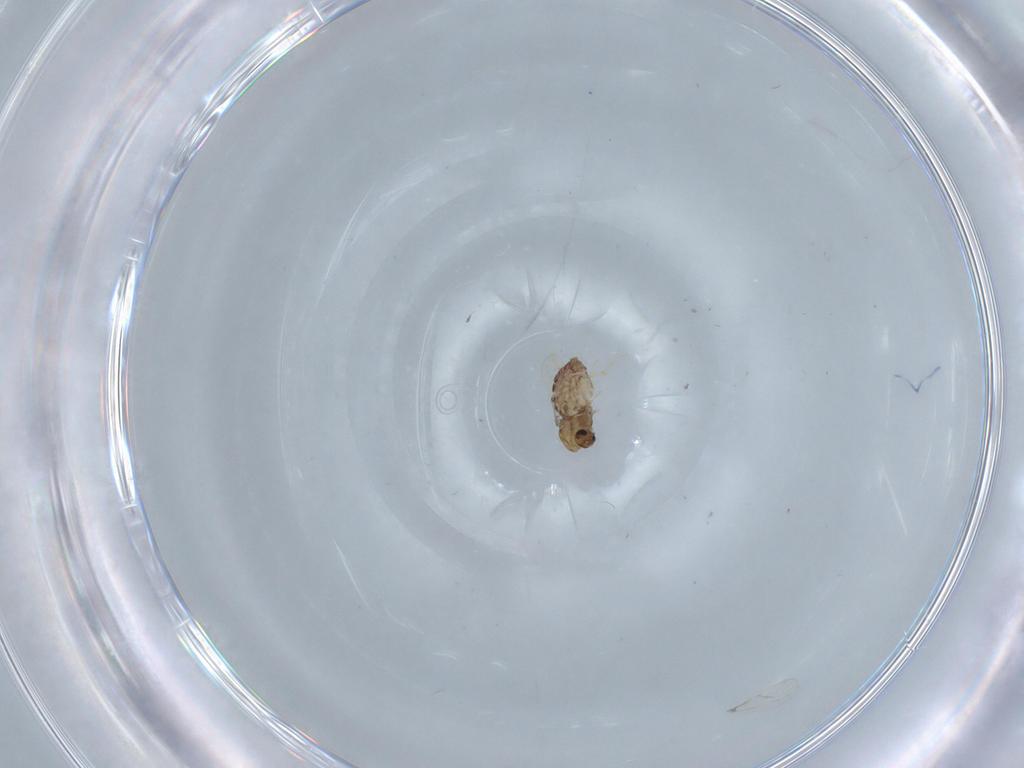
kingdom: Animalia
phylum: Arthropoda
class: Insecta
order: Diptera
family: Chironomidae
